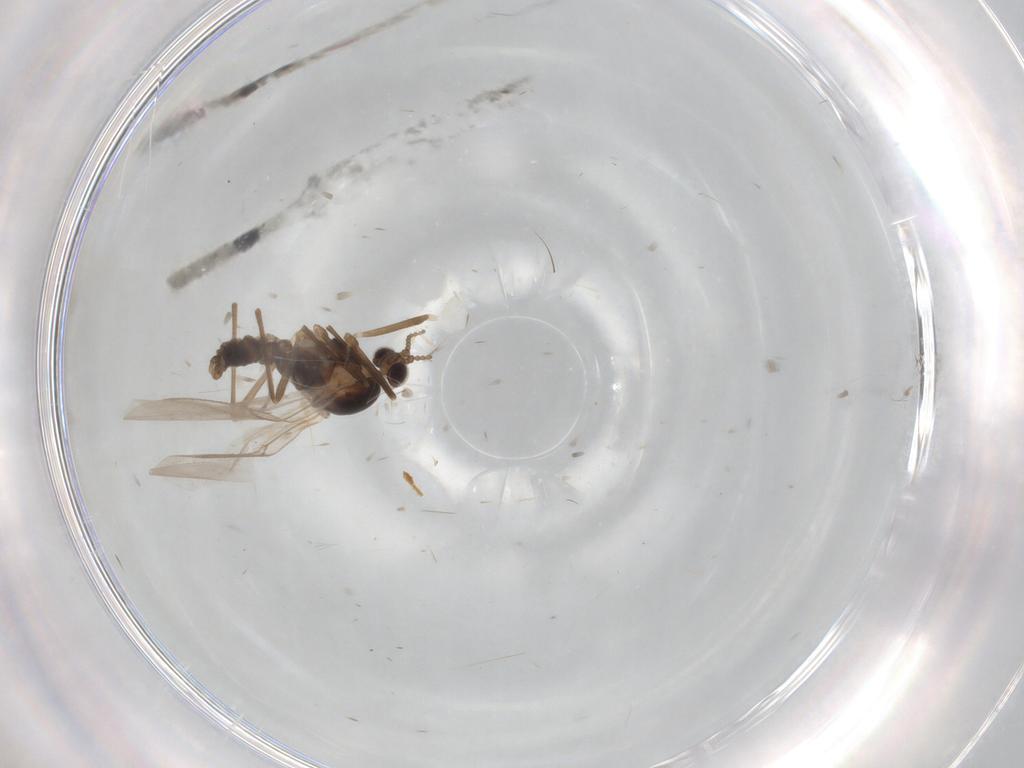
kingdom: Animalia
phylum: Arthropoda
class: Insecta
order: Diptera
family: Cecidomyiidae
